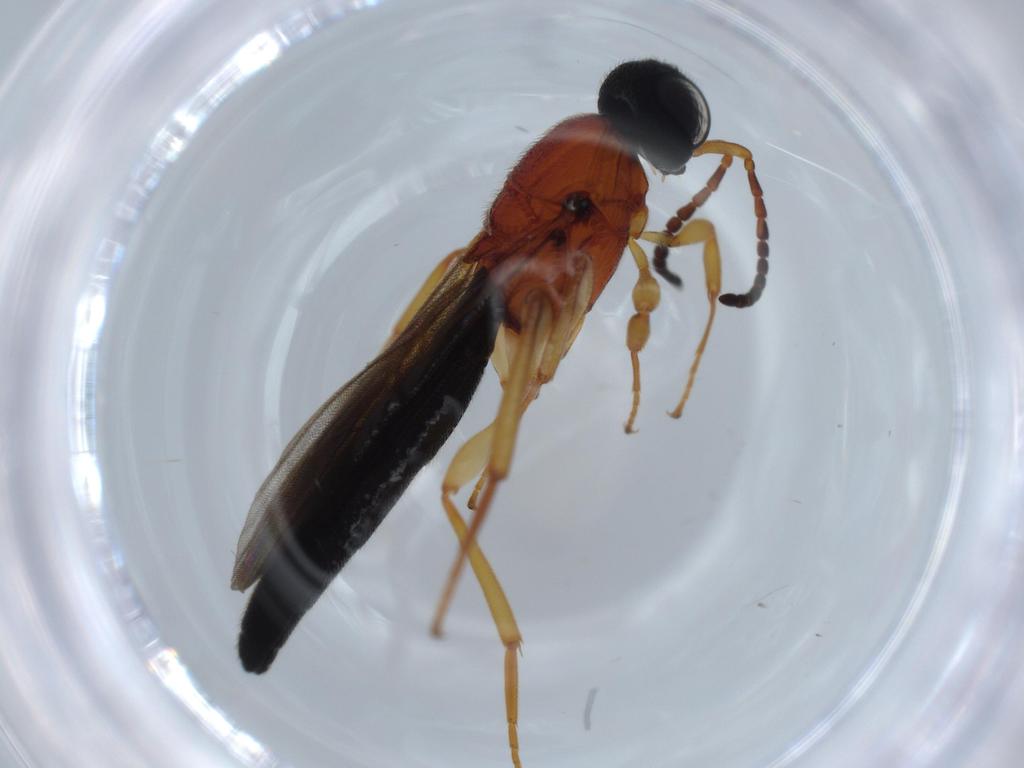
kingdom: Animalia
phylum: Arthropoda
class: Insecta
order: Hymenoptera
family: Scelionidae
